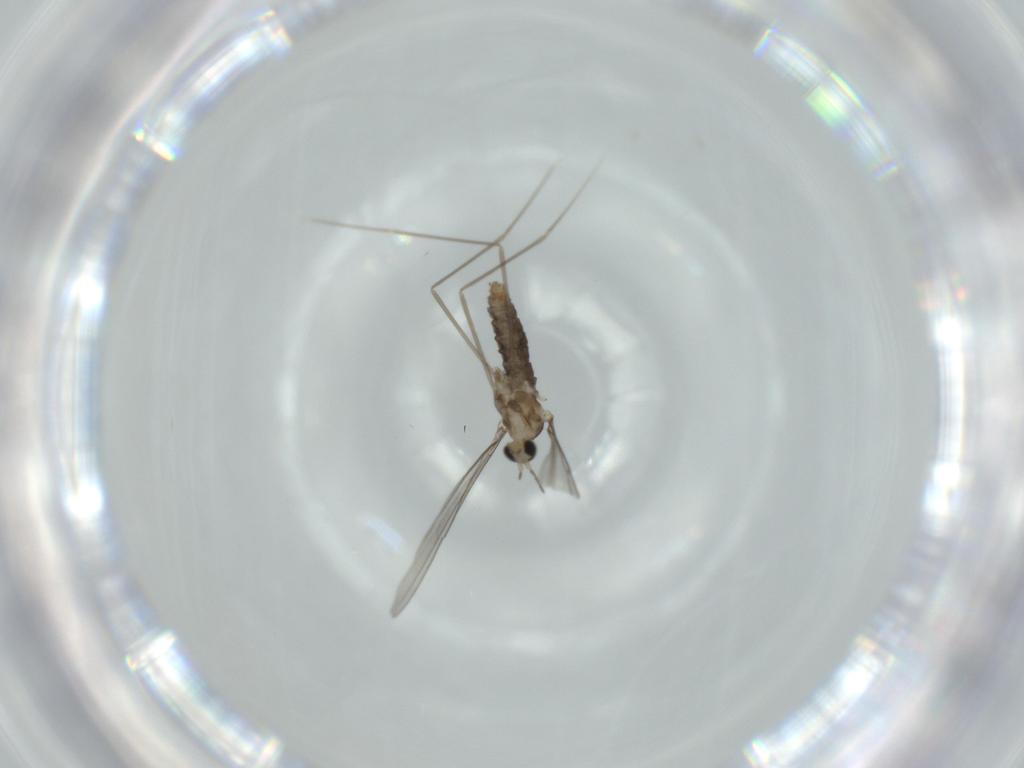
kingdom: Animalia
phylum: Arthropoda
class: Insecta
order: Diptera
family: Cecidomyiidae
